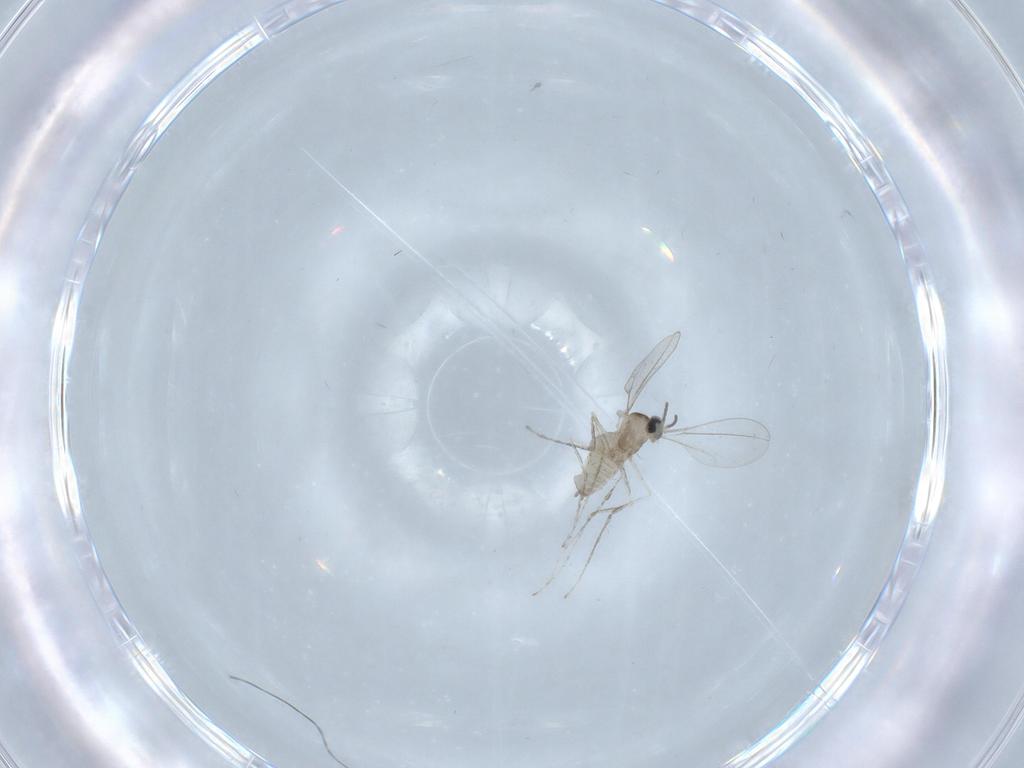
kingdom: Animalia
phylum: Arthropoda
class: Insecta
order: Diptera
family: Cecidomyiidae
